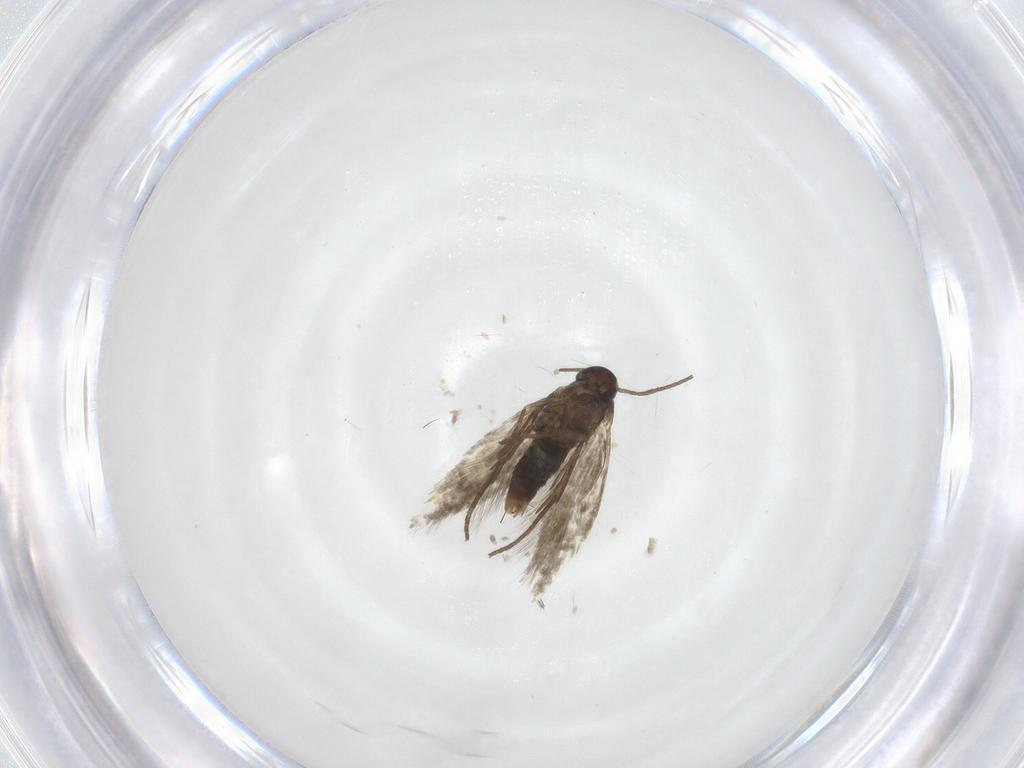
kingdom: Animalia
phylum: Arthropoda
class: Insecta
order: Lepidoptera
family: Heliozelidae
